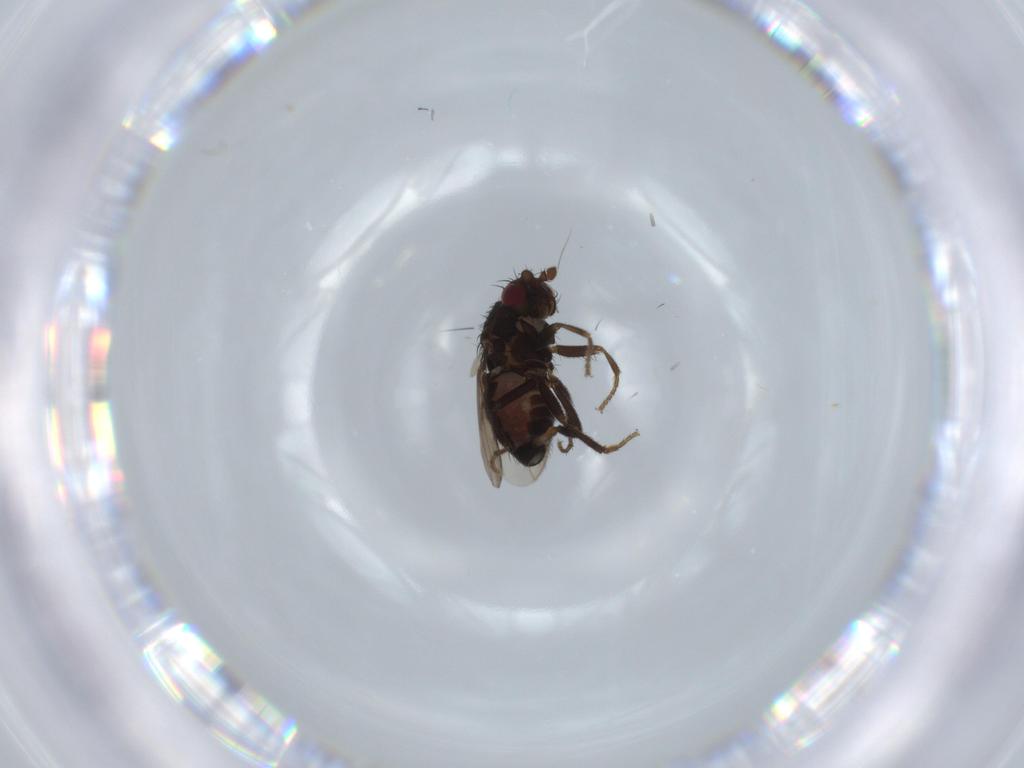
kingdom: Animalia
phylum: Arthropoda
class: Insecta
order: Diptera
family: Sphaeroceridae
